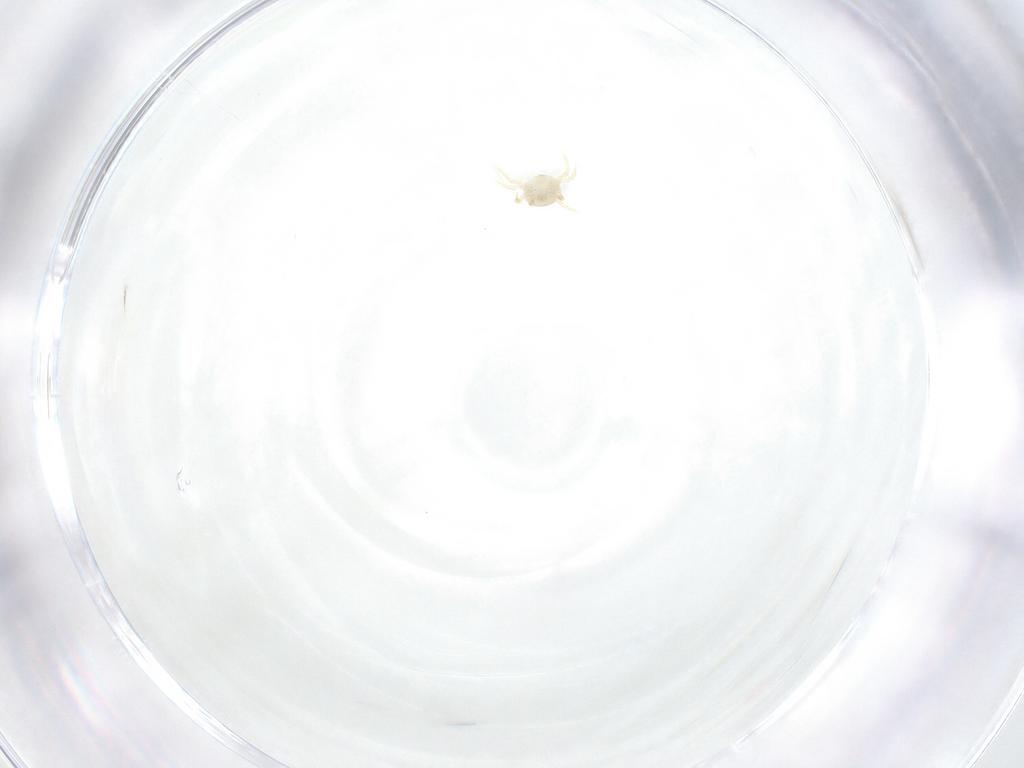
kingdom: Animalia
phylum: Arthropoda
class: Arachnida
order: Mesostigmata
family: Ameroseiidae
